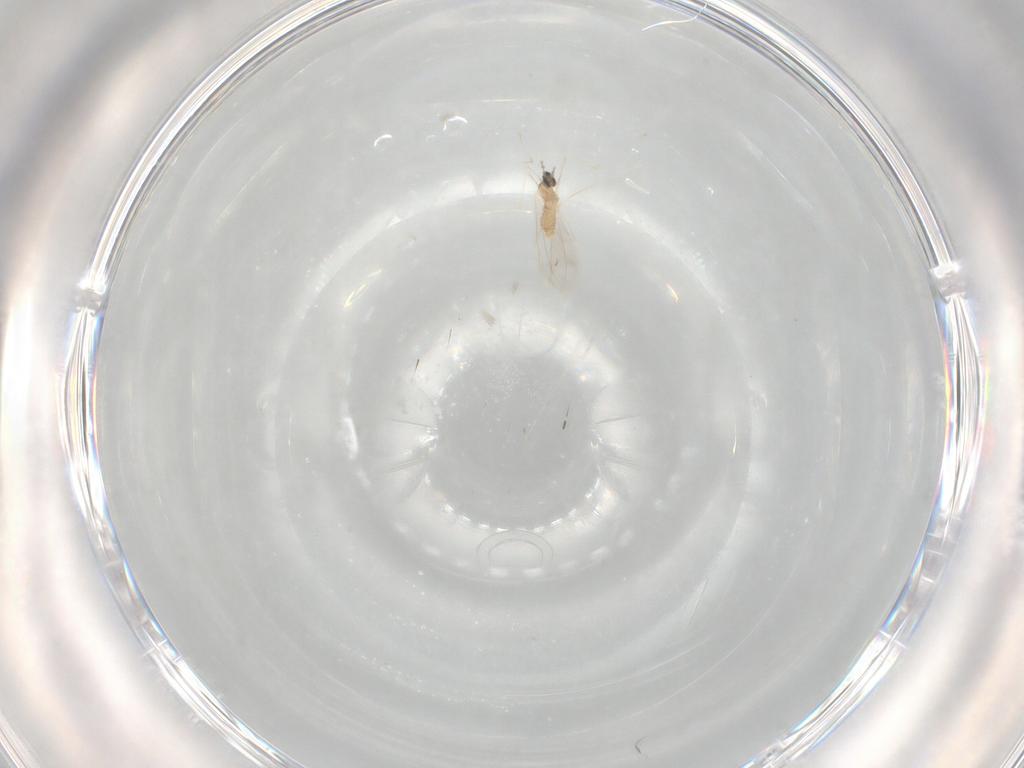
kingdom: Animalia
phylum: Arthropoda
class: Insecta
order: Diptera
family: Cecidomyiidae
